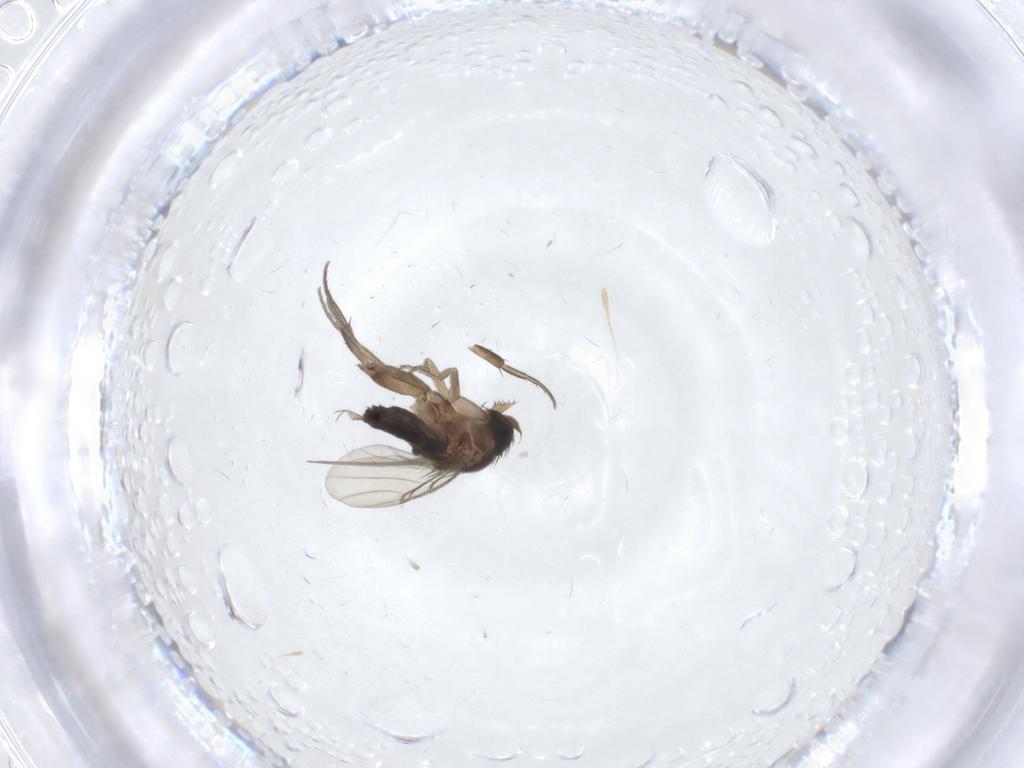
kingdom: Animalia
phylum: Arthropoda
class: Insecta
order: Diptera
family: Phoridae
